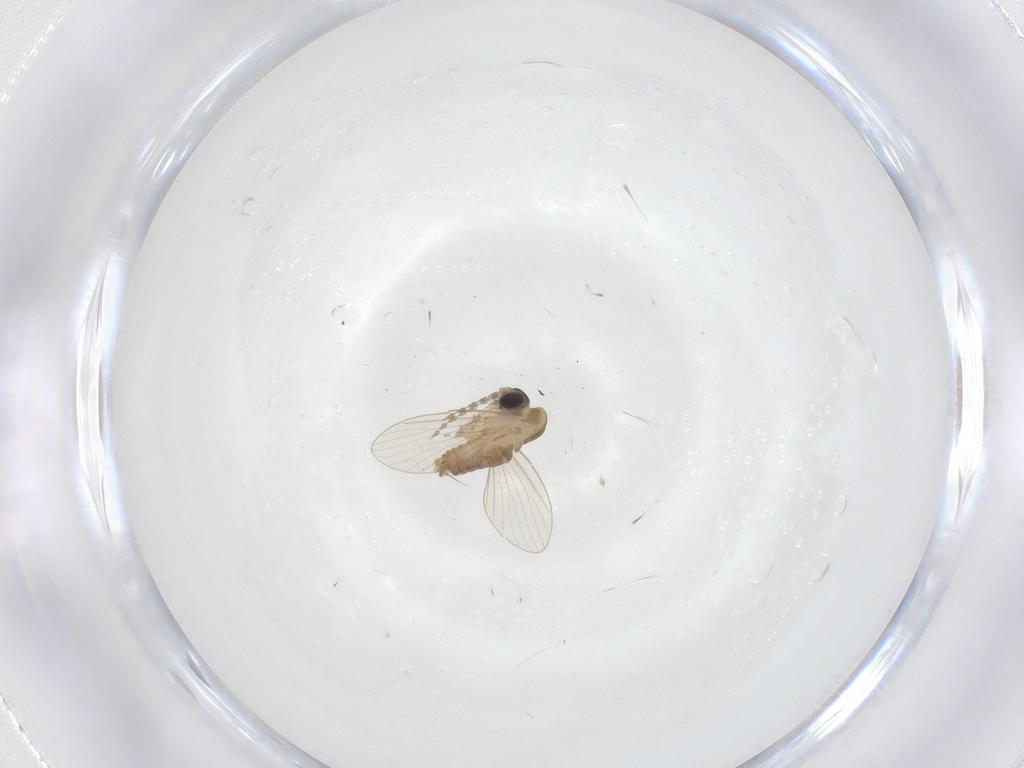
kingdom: Animalia
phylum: Arthropoda
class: Insecta
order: Diptera
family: Psychodidae
